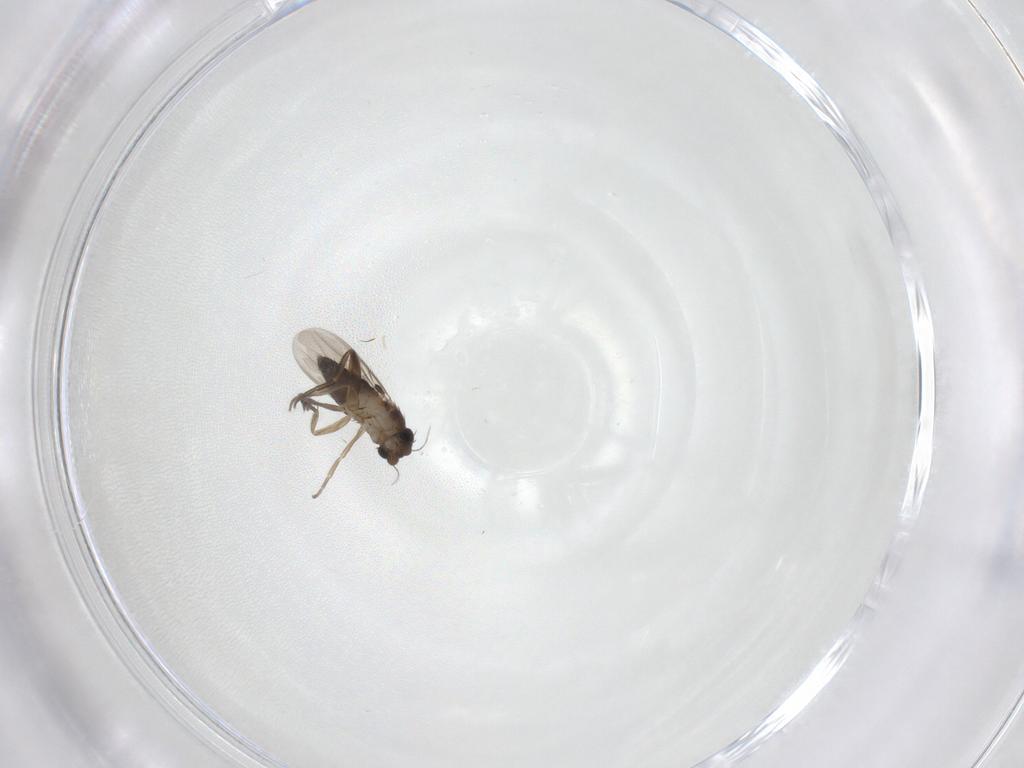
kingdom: Animalia
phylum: Arthropoda
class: Insecta
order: Diptera
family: Phoridae
